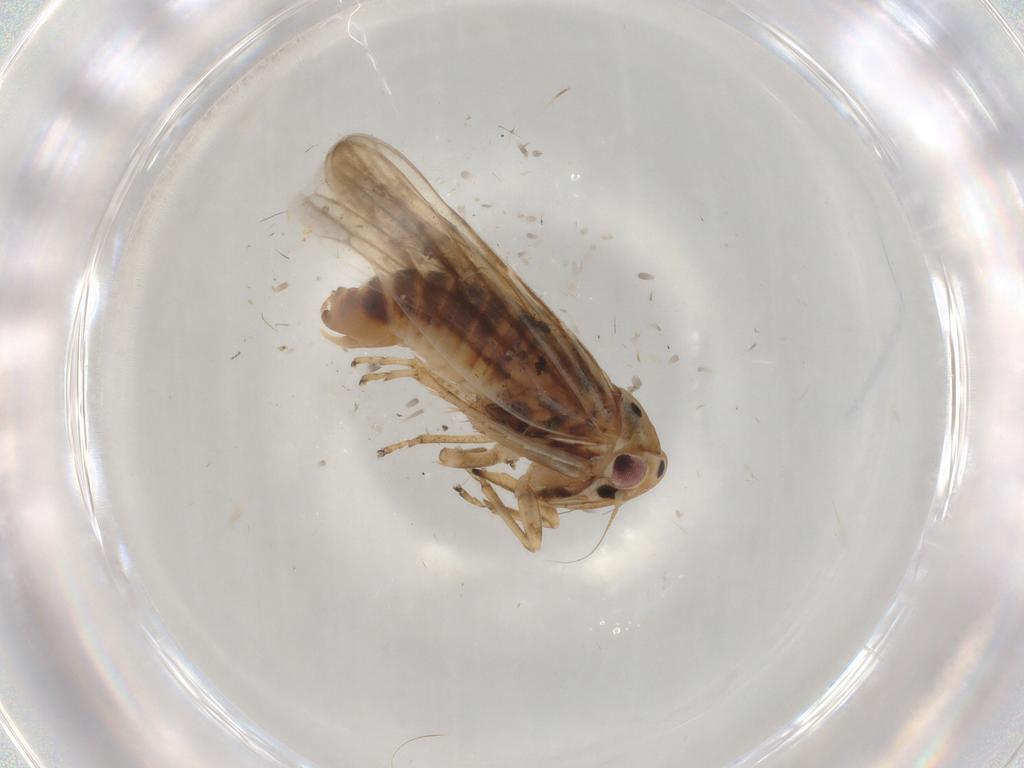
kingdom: Animalia
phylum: Arthropoda
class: Insecta
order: Hemiptera
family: Cicadellidae
